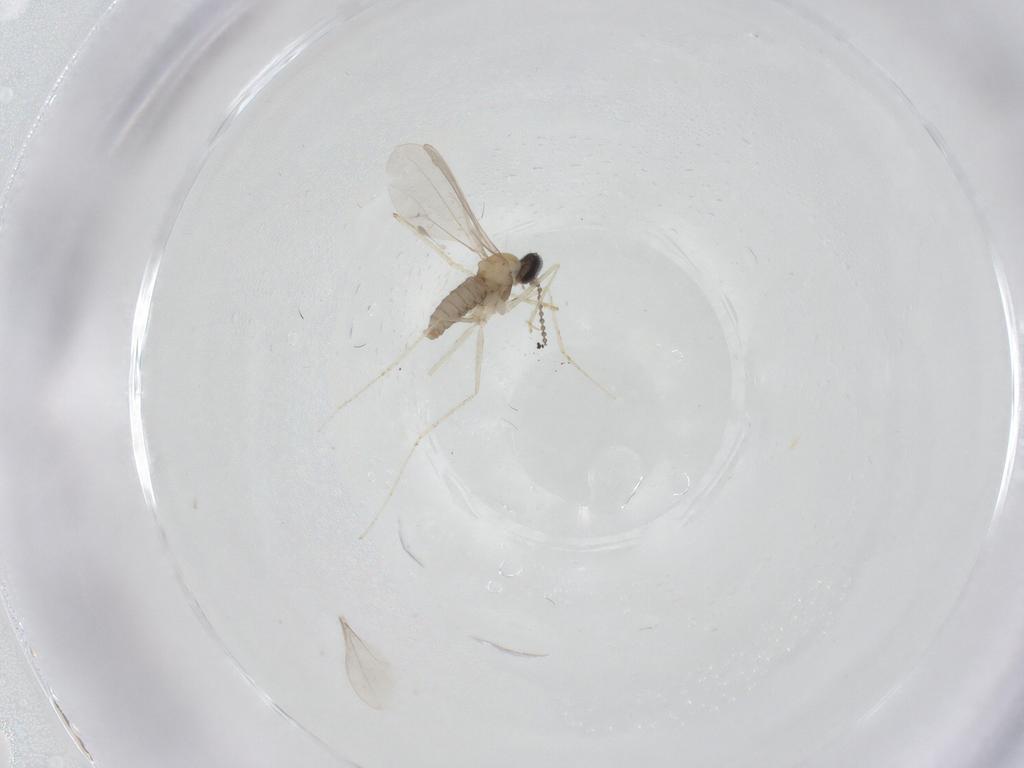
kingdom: Animalia
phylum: Arthropoda
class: Insecta
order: Diptera
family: Cecidomyiidae
